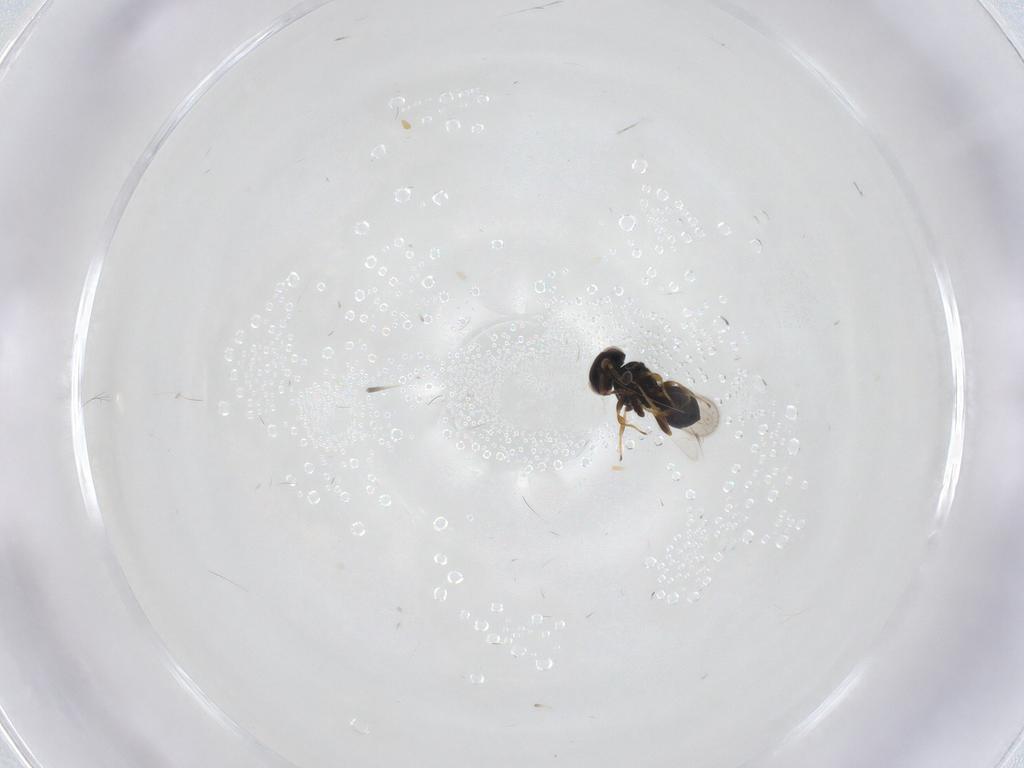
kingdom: Animalia
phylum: Arthropoda
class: Insecta
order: Hymenoptera
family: Scelionidae
